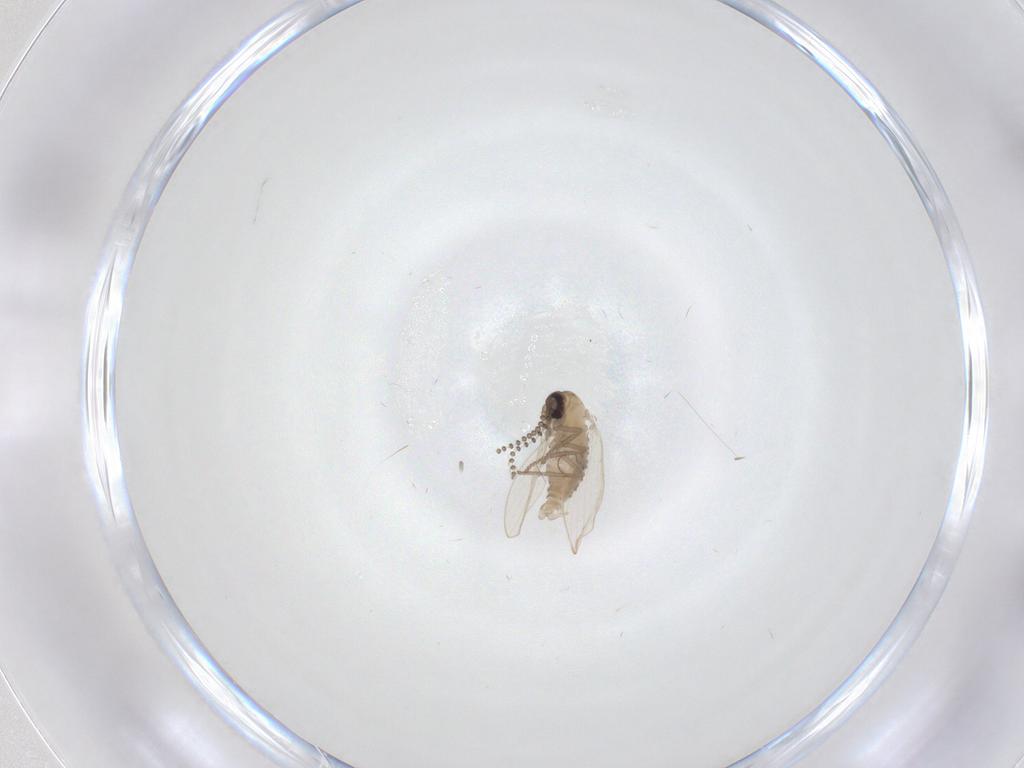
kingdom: Animalia
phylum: Arthropoda
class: Insecta
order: Diptera
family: Psychodidae
